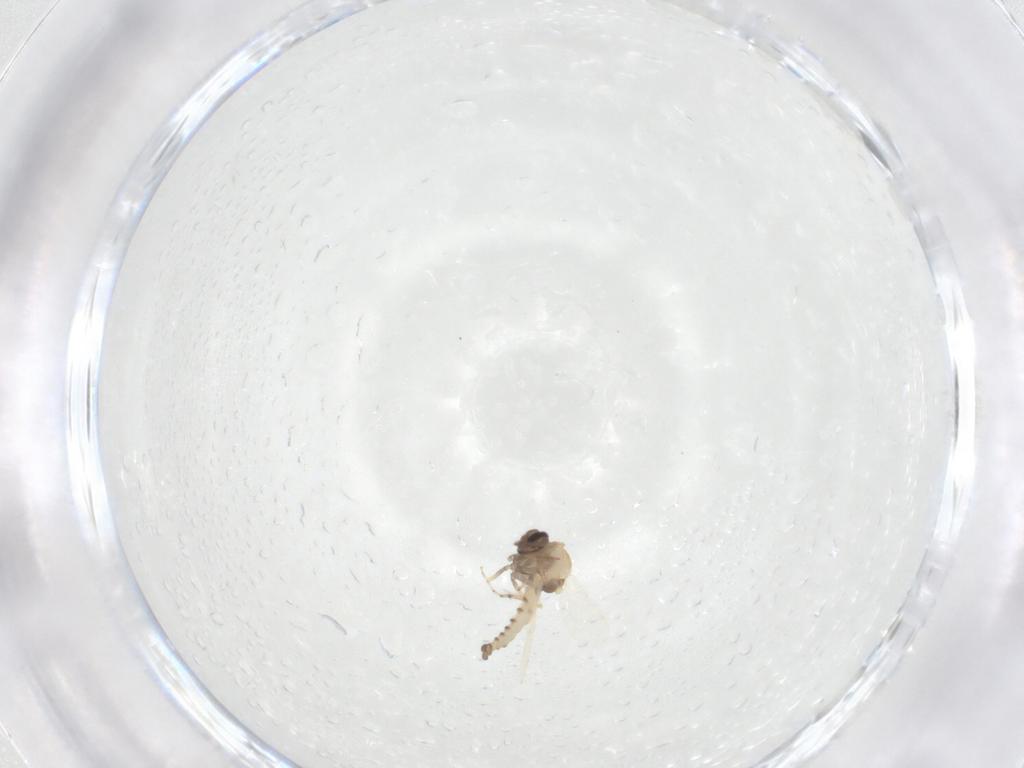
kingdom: Animalia
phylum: Arthropoda
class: Insecta
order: Diptera
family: Ceratopogonidae
